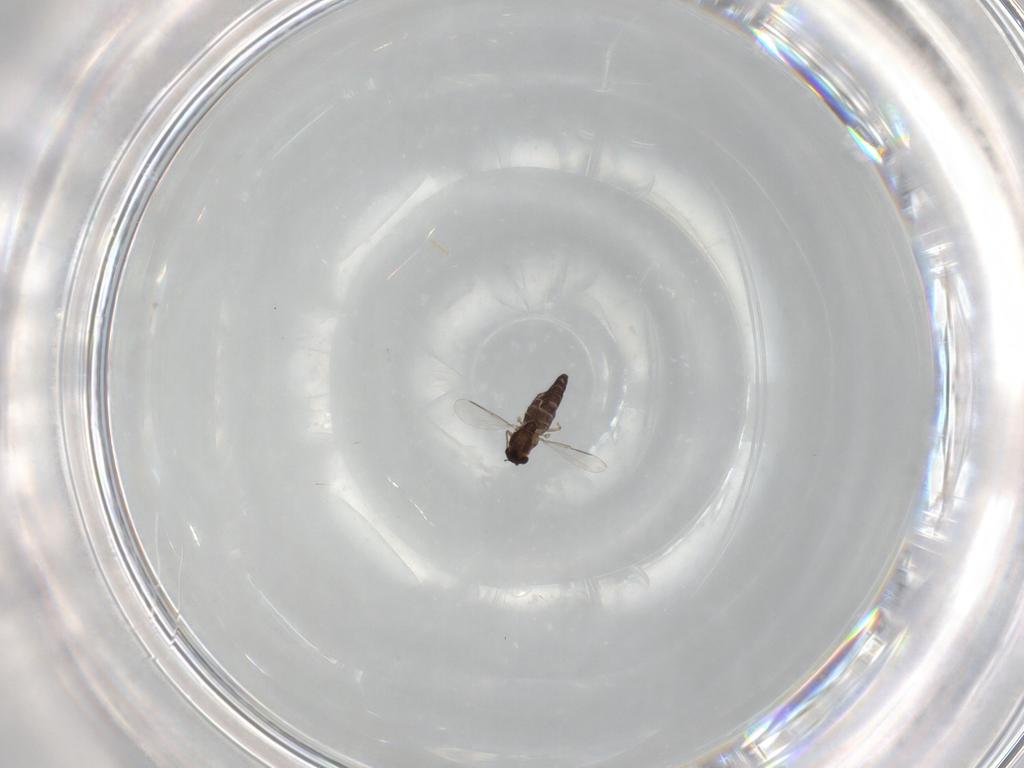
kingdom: Animalia
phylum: Arthropoda
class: Insecta
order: Diptera
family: Chironomidae
